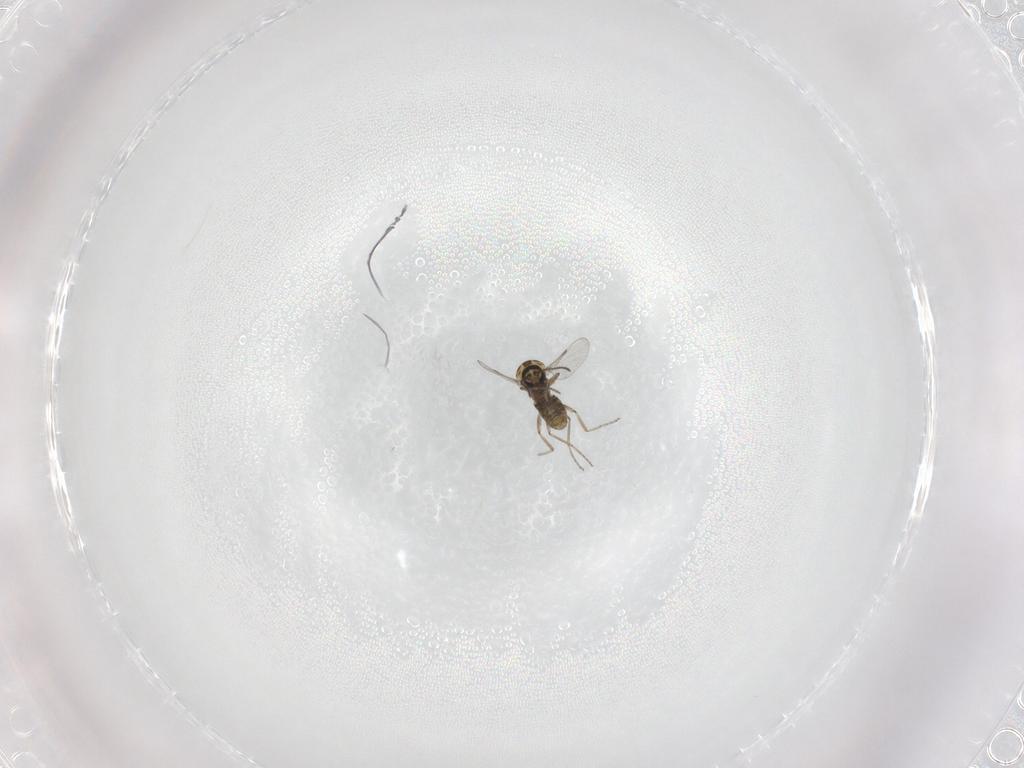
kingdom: Animalia
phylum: Arthropoda
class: Insecta
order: Diptera
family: Ceratopogonidae
